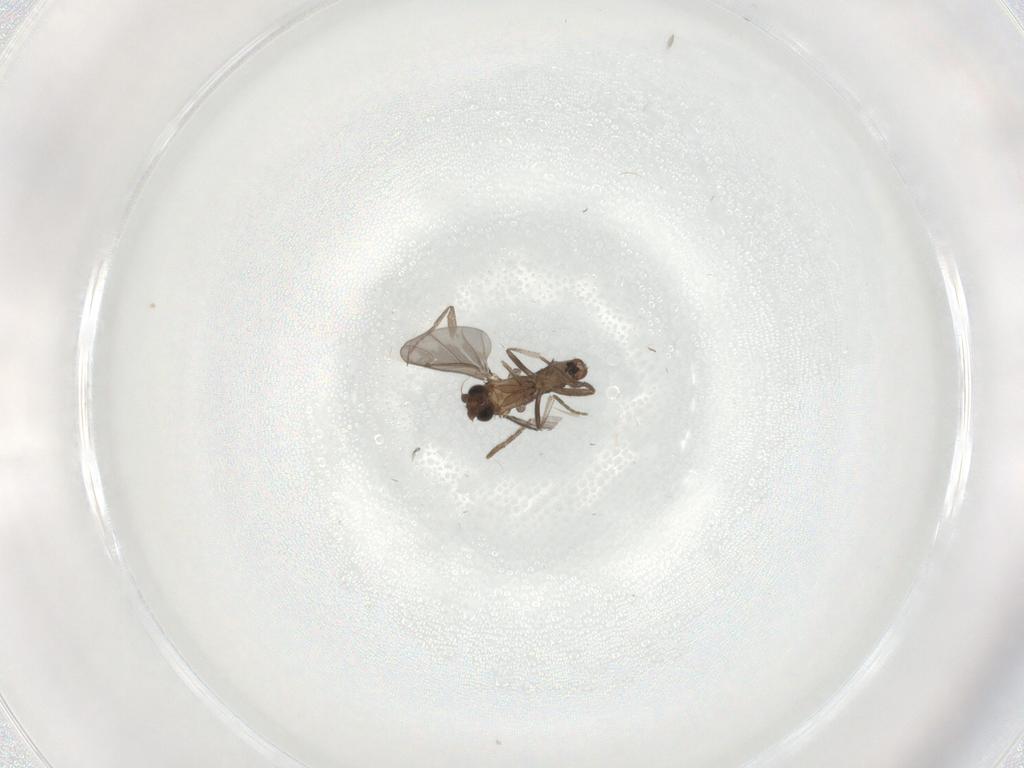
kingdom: Animalia
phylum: Arthropoda
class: Insecta
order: Diptera
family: Phoridae
